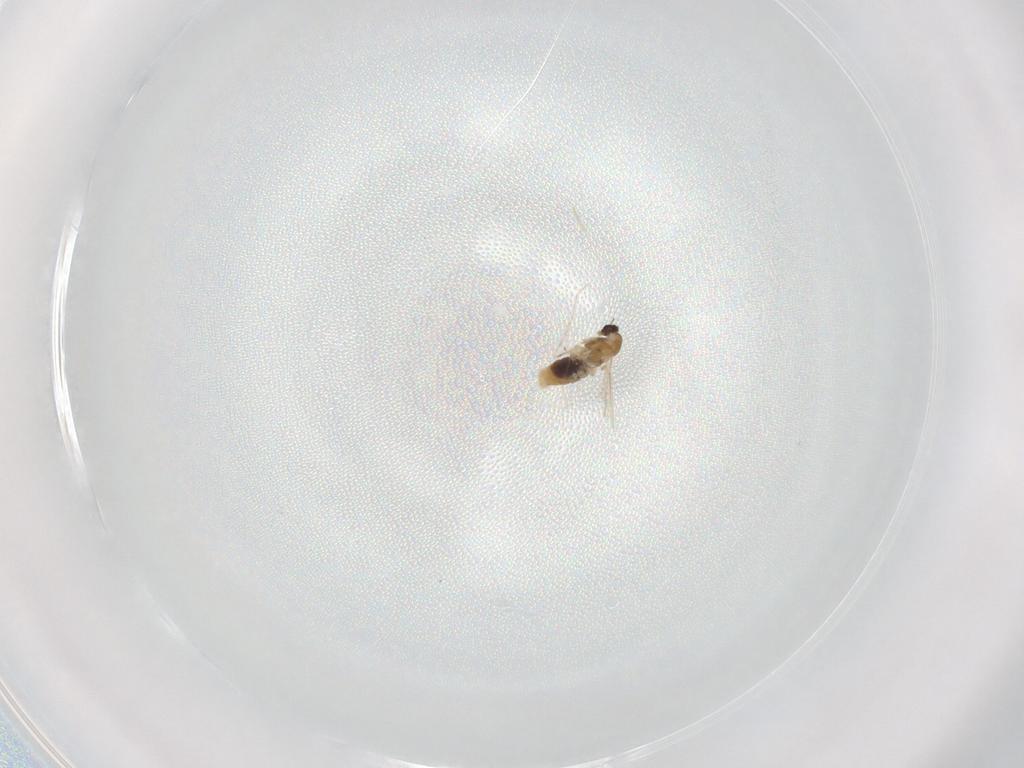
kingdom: Animalia
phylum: Arthropoda
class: Insecta
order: Diptera
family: Cecidomyiidae
